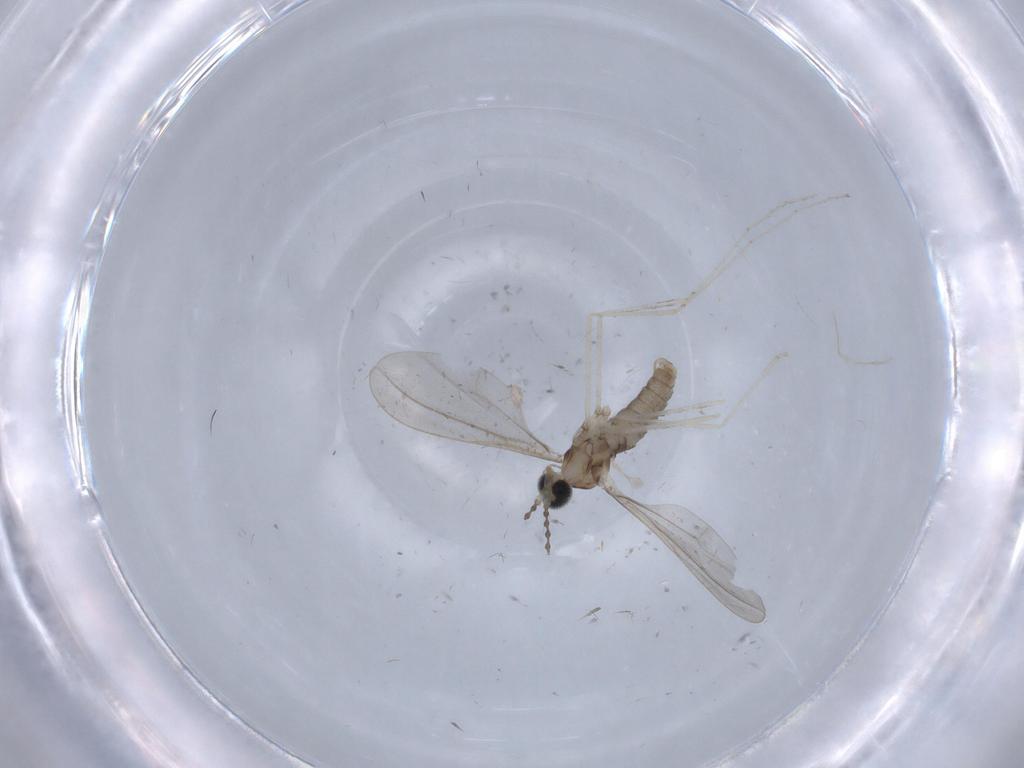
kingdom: Animalia
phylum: Arthropoda
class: Insecta
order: Diptera
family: Cecidomyiidae
